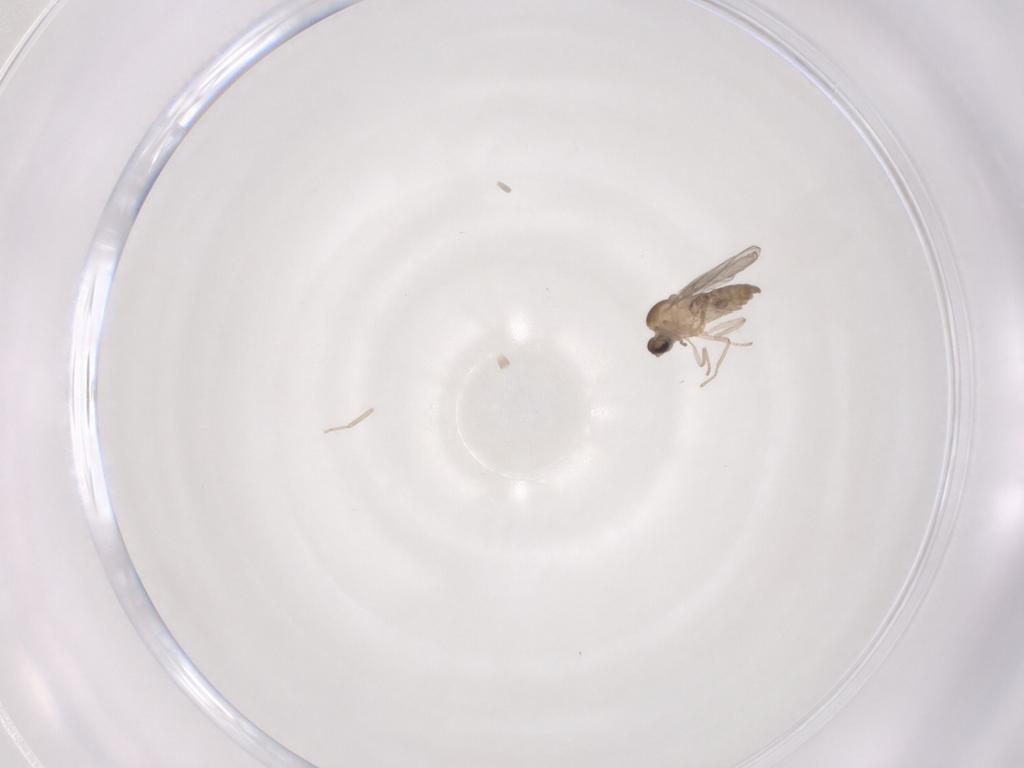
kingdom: Animalia
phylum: Arthropoda
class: Insecta
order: Diptera
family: Cecidomyiidae
